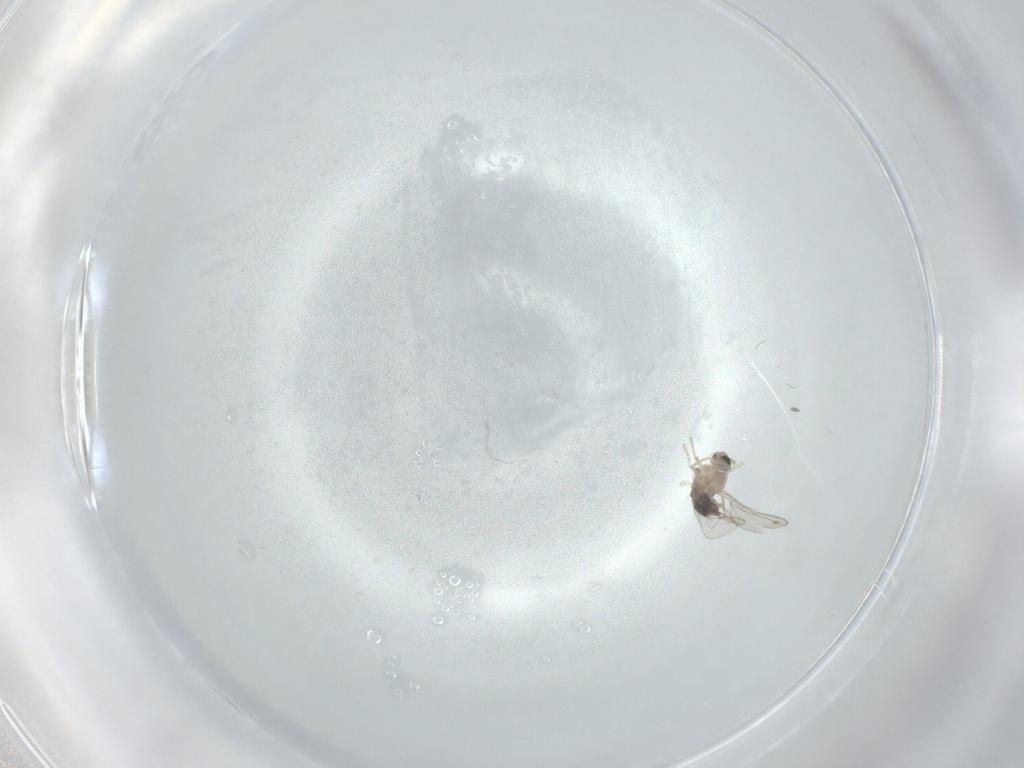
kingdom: Animalia
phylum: Arthropoda
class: Insecta
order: Diptera
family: Cecidomyiidae
